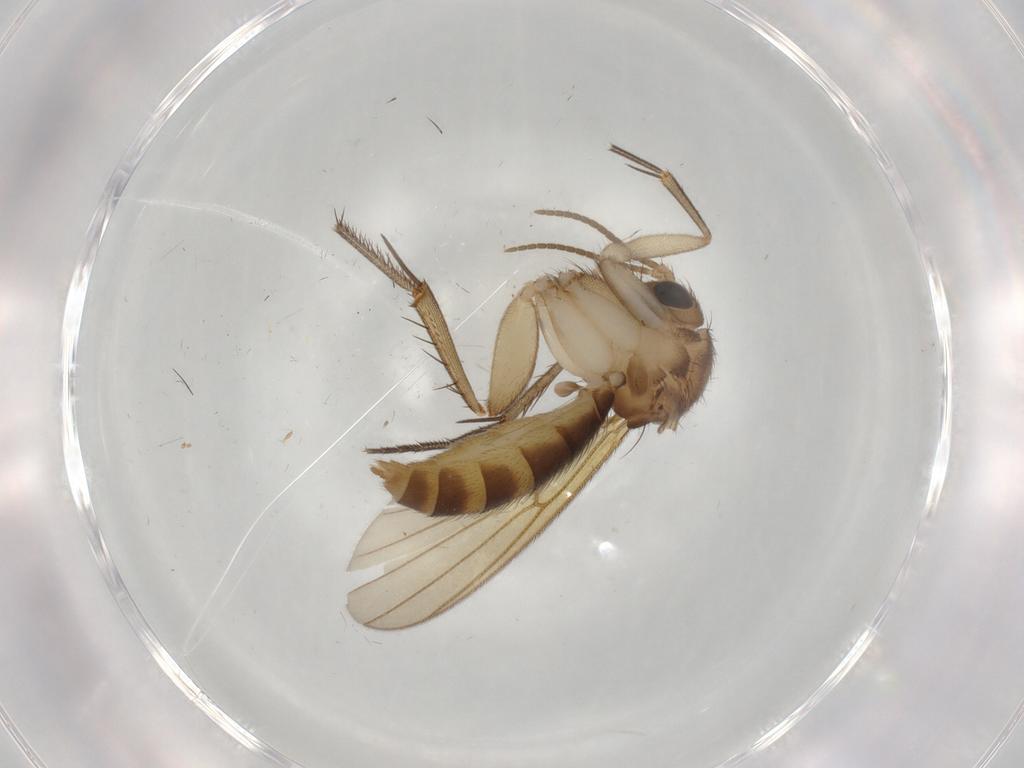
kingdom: Animalia
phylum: Arthropoda
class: Insecta
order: Diptera
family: Mycetophilidae
